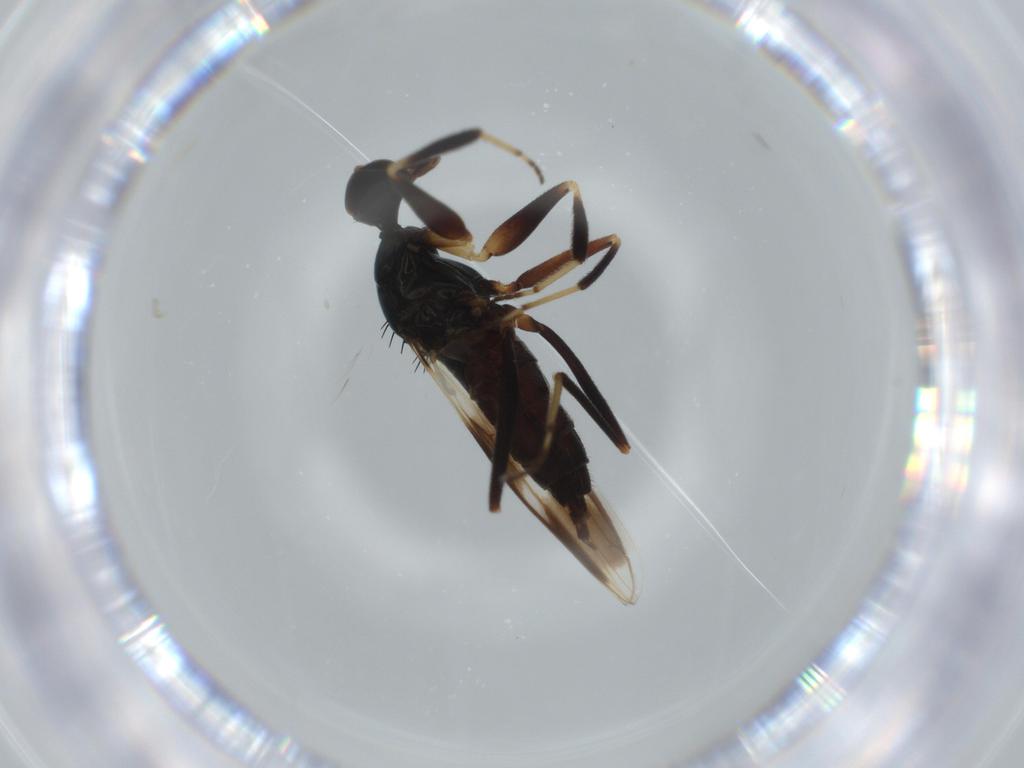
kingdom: Animalia
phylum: Arthropoda
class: Insecta
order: Diptera
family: Hybotidae
